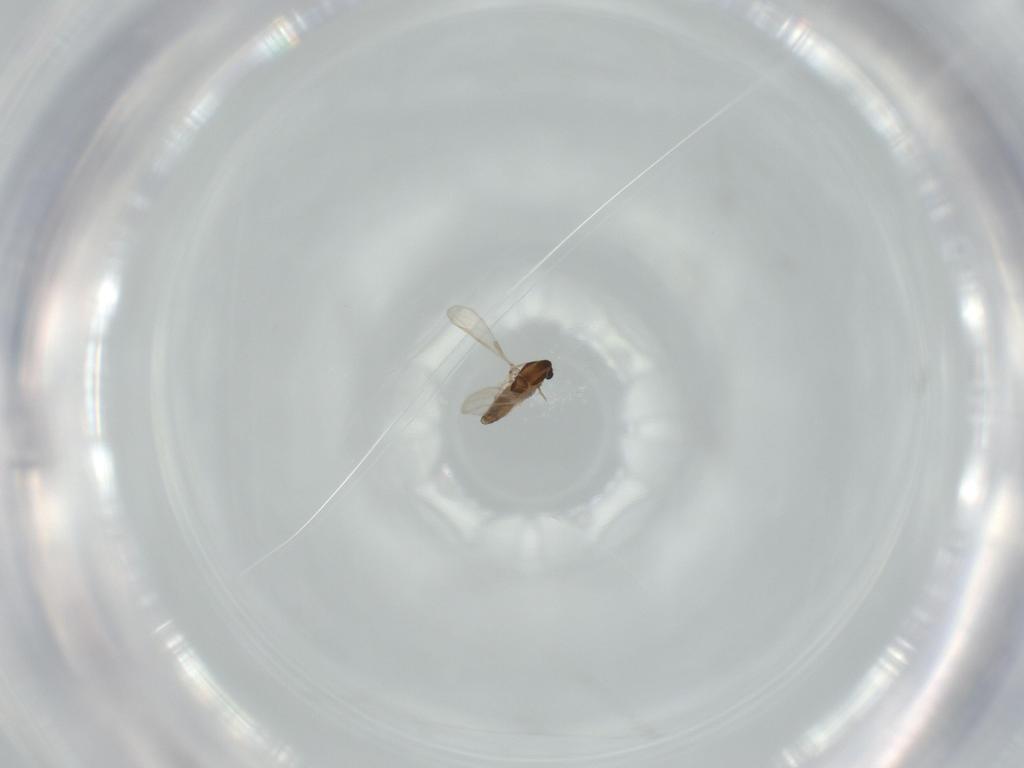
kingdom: Animalia
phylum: Arthropoda
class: Insecta
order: Diptera
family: Chironomidae
